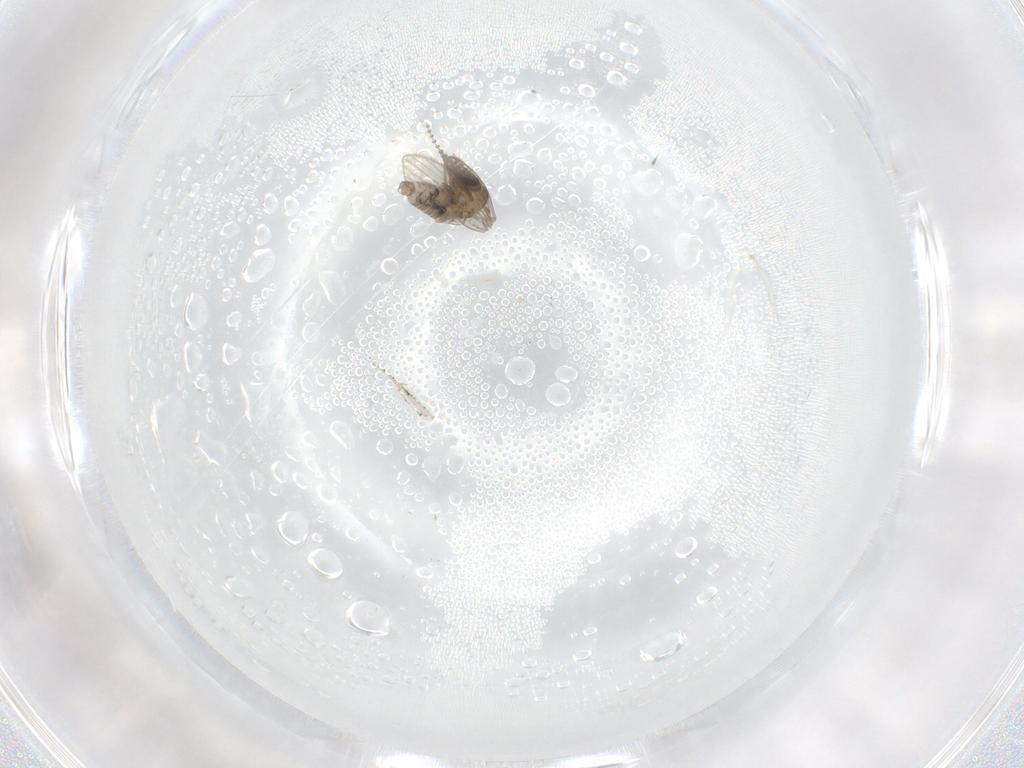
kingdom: Animalia
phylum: Arthropoda
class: Insecta
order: Diptera
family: Psychodidae
